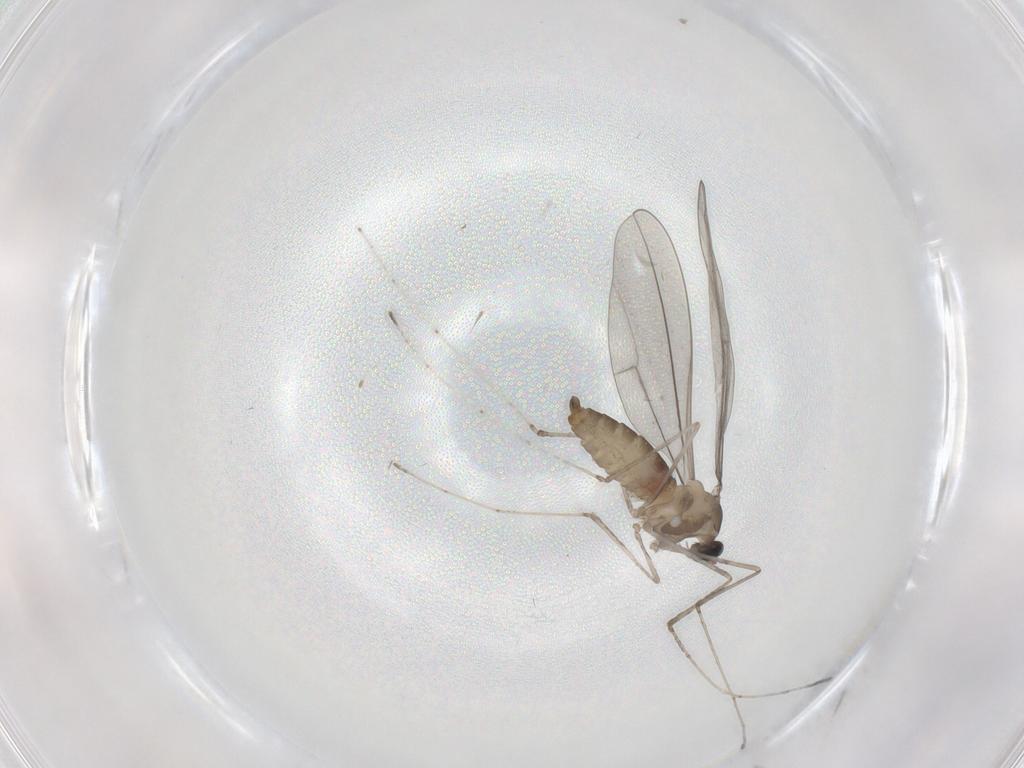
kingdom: Animalia
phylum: Arthropoda
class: Insecta
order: Diptera
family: Cecidomyiidae
